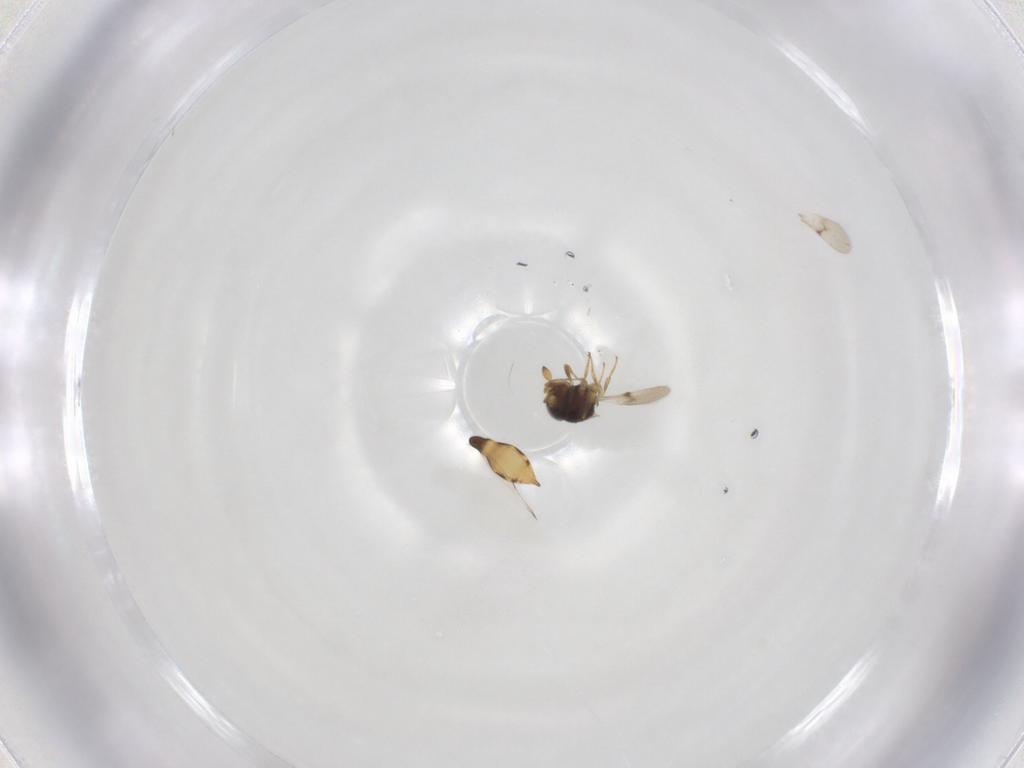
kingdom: Animalia
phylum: Arthropoda
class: Insecta
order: Hymenoptera
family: Scelionidae
